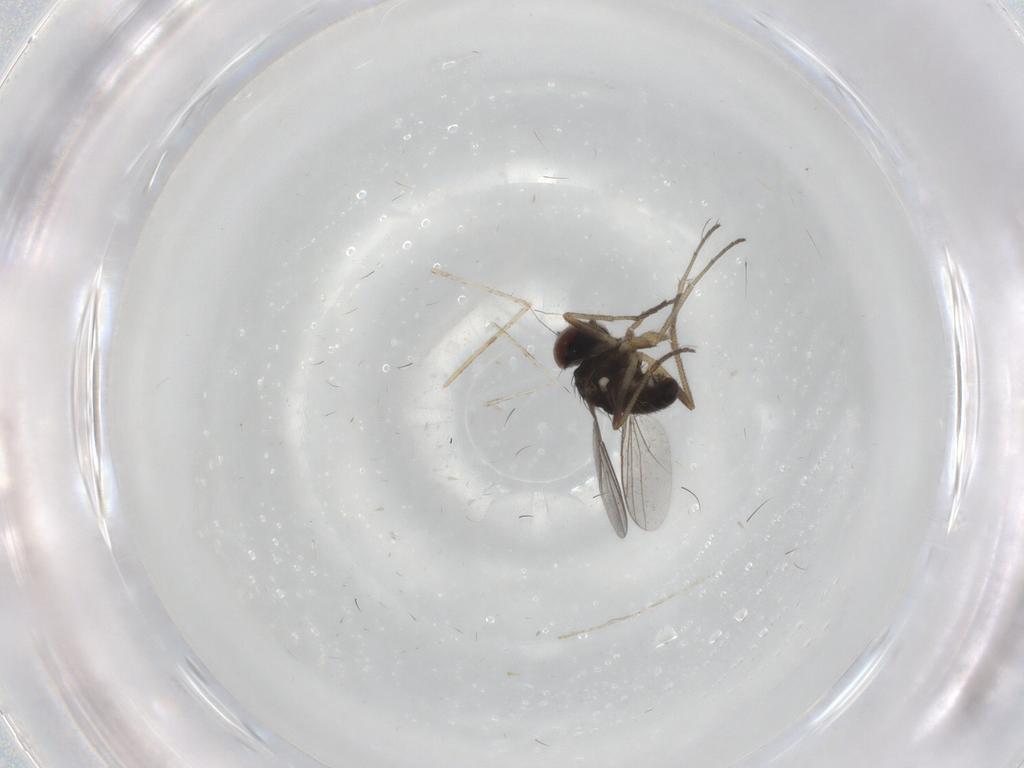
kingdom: Animalia
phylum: Arthropoda
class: Insecta
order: Diptera
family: Dolichopodidae
